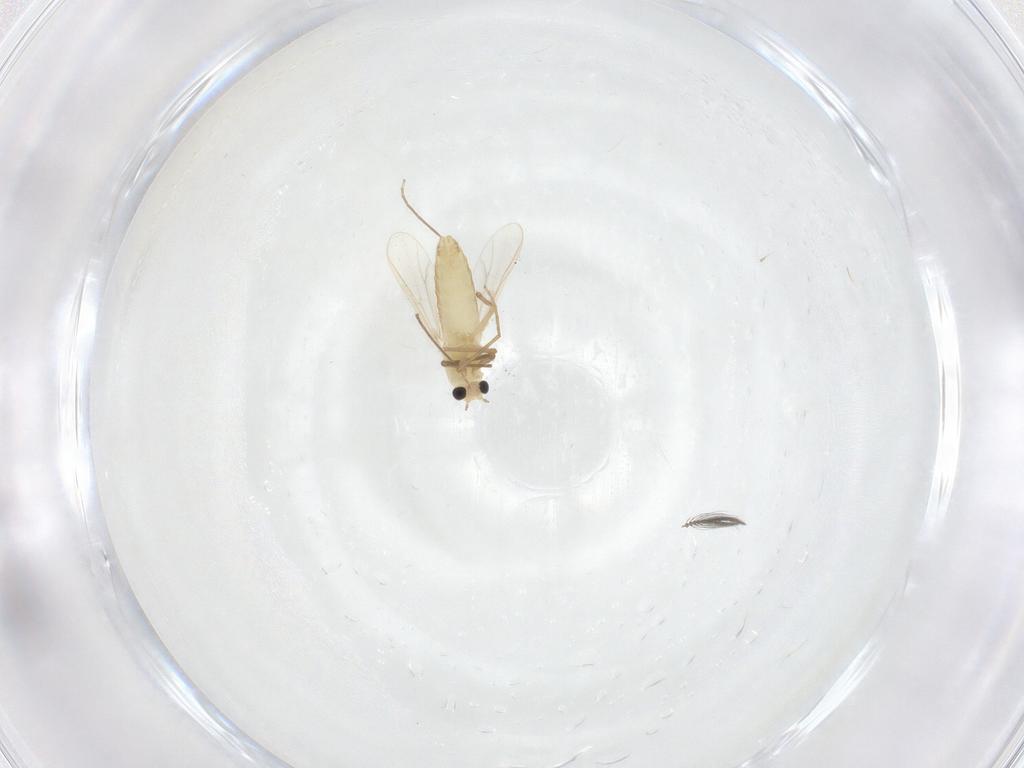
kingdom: Animalia
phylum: Arthropoda
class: Insecta
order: Diptera
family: Chironomidae
